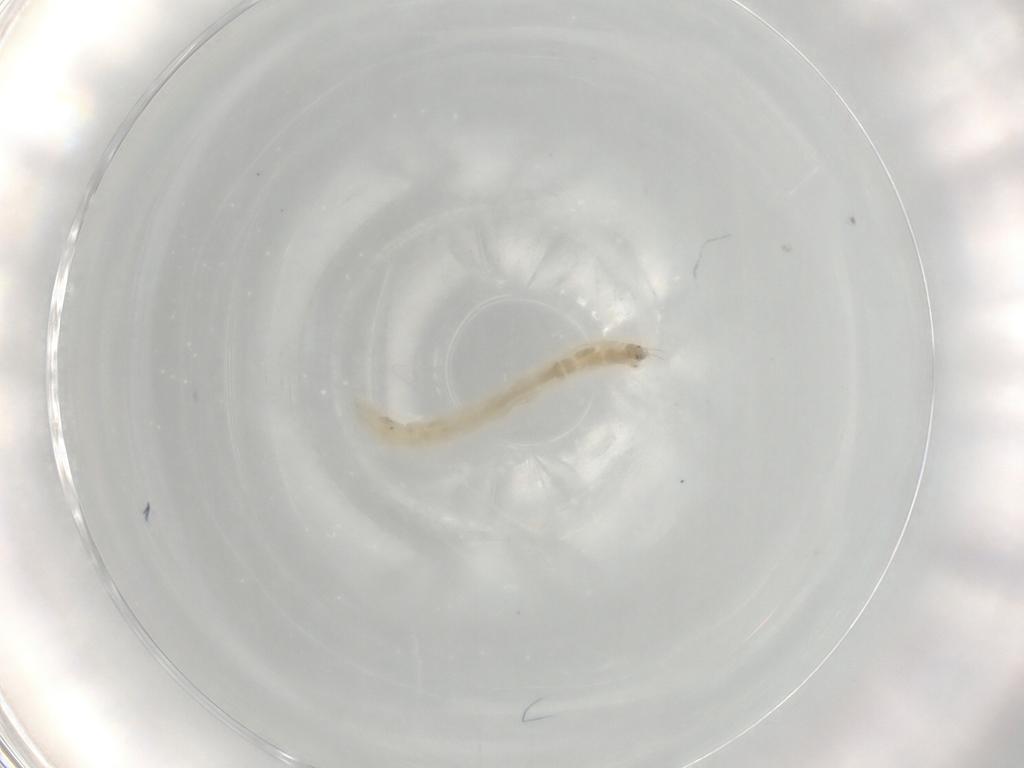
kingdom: Animalia
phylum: Arthropoda
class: Insecta
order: Diptera
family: Chironomidae
